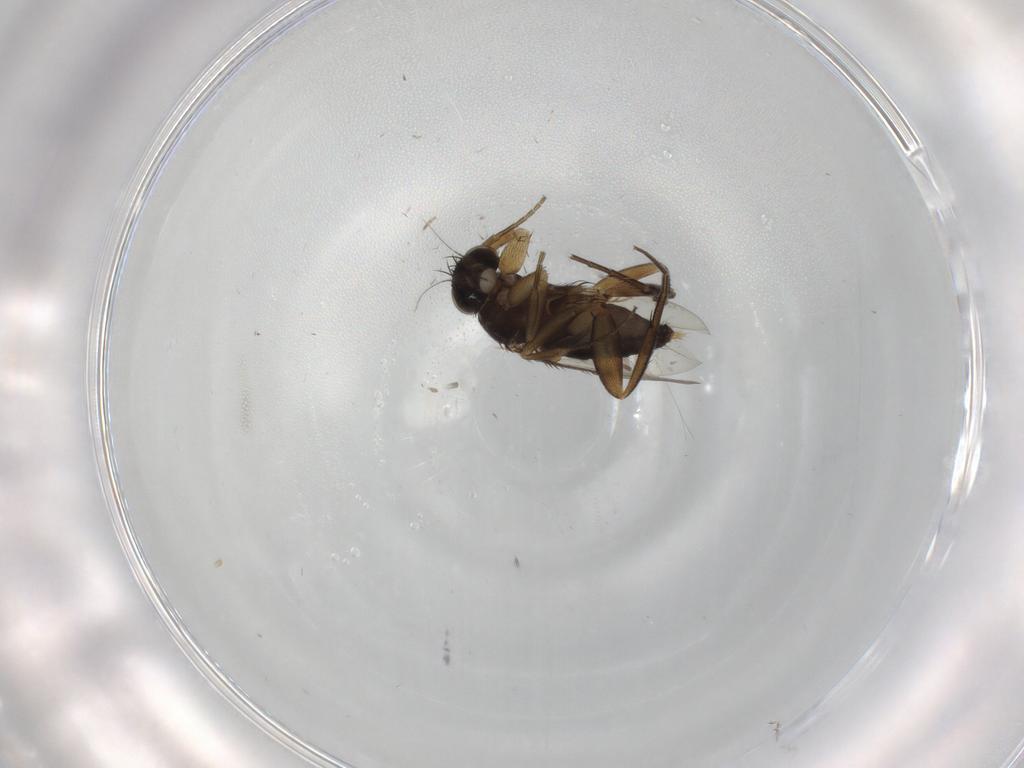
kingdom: Animalia
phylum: Arthropoda
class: Insecta
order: Diptera
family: Phoridae
